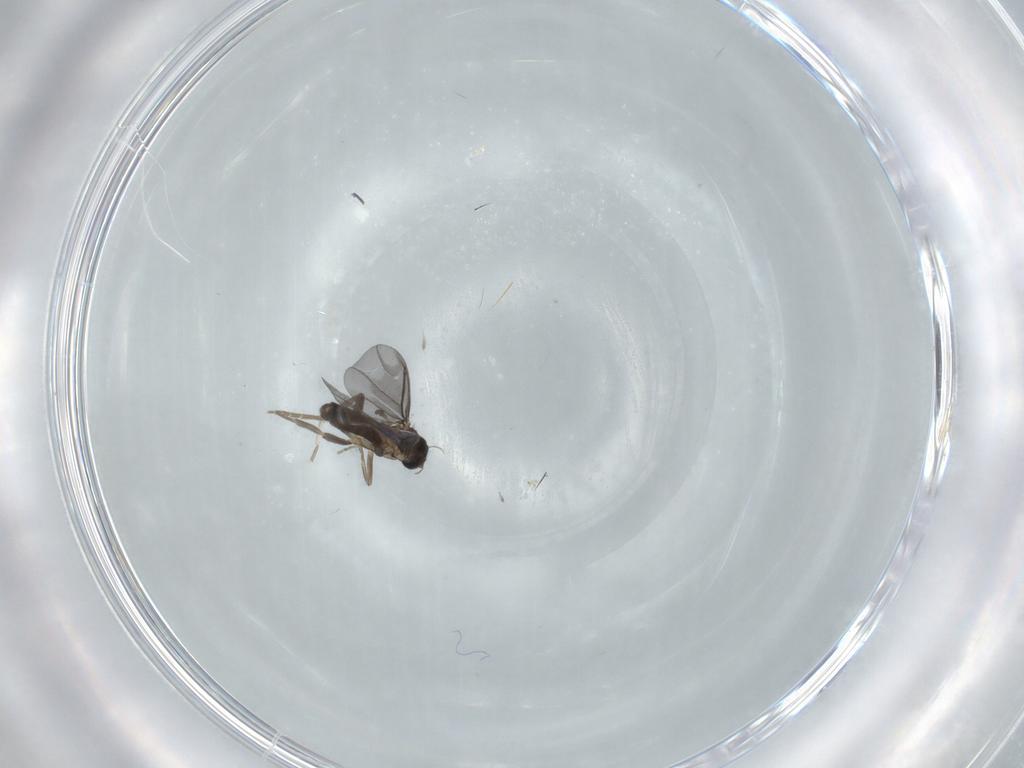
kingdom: Animalia
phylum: Arthropoda
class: Insecta
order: Diptera
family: Phoridae
